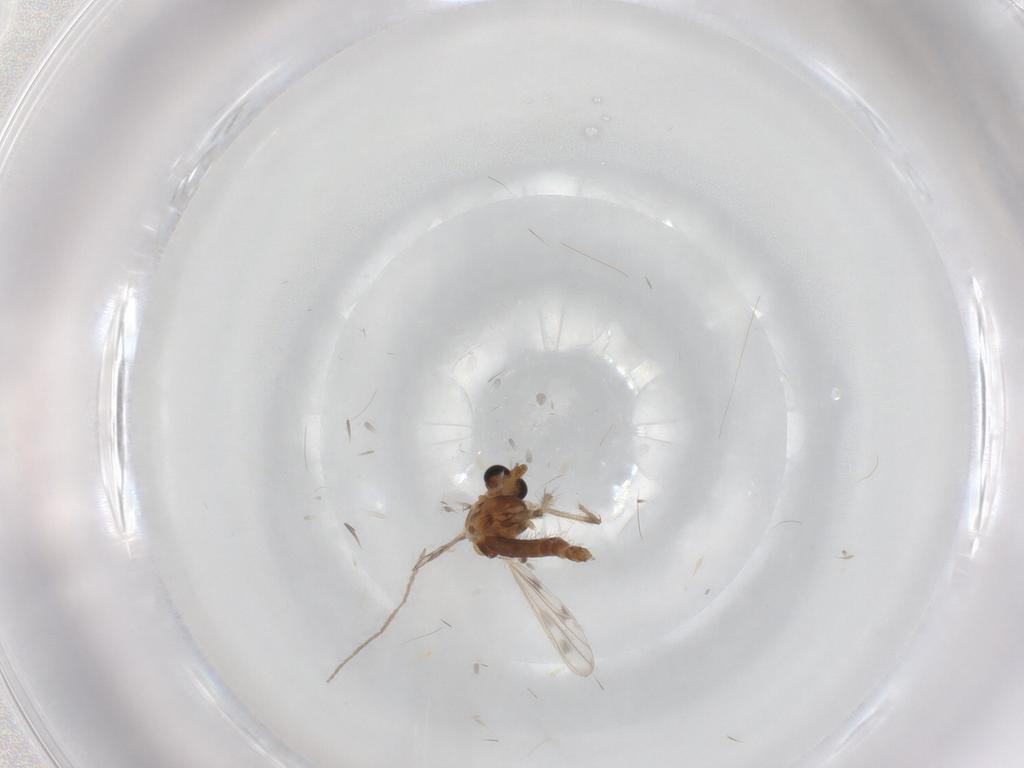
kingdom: Animalia
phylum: Arthropoda
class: Insecta
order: Diptera
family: Chironomidae
